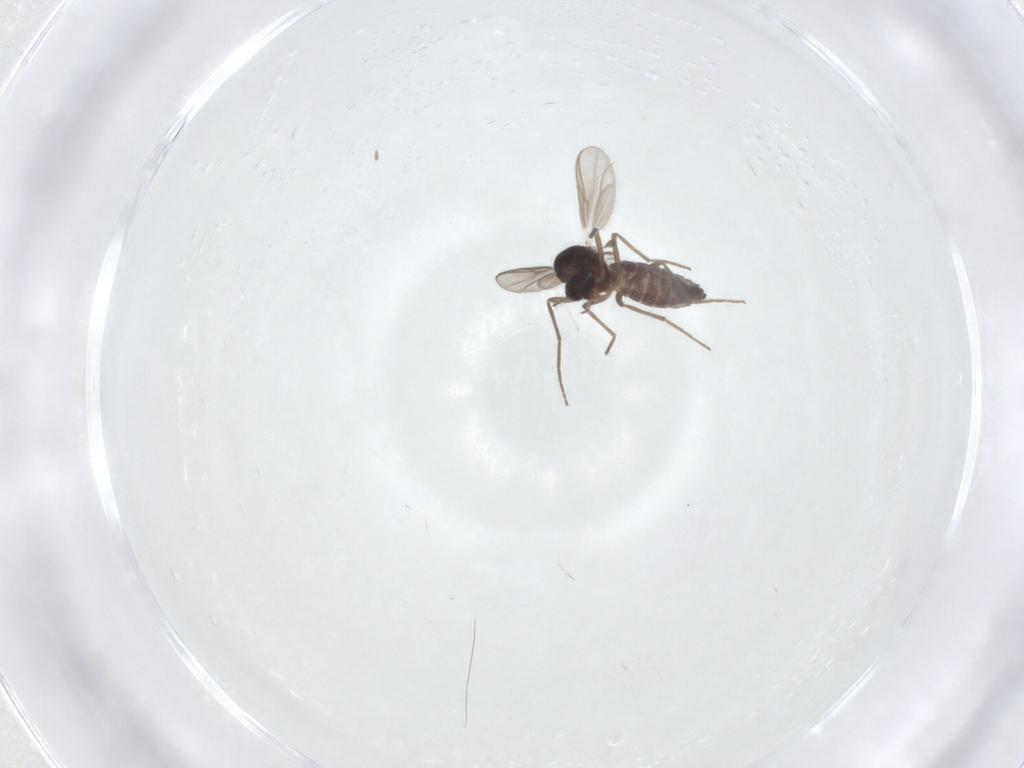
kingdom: Animalia
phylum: Arthropoda
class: Insecta
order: Diptera
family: Chironomidae
